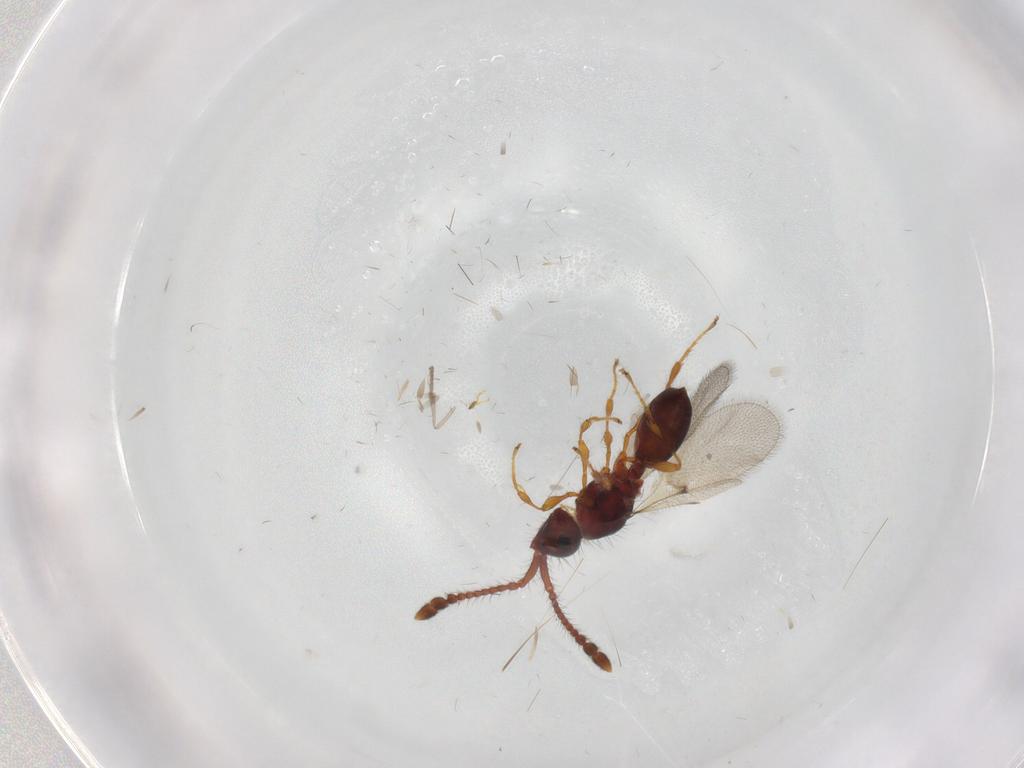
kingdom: Animalia
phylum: Arthropoda
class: Insecta
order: Hymenoptera
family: Diapriidae
